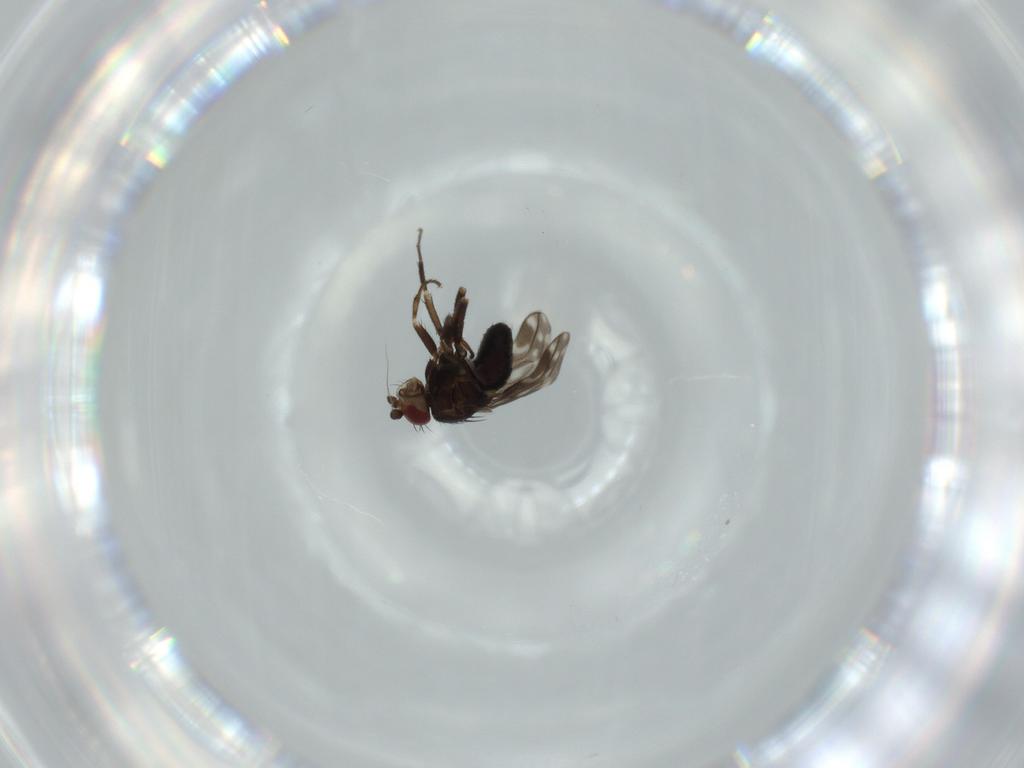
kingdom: Animalia
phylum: Arthropoda
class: Insecta
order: Diptera
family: Sphaeroceridae
